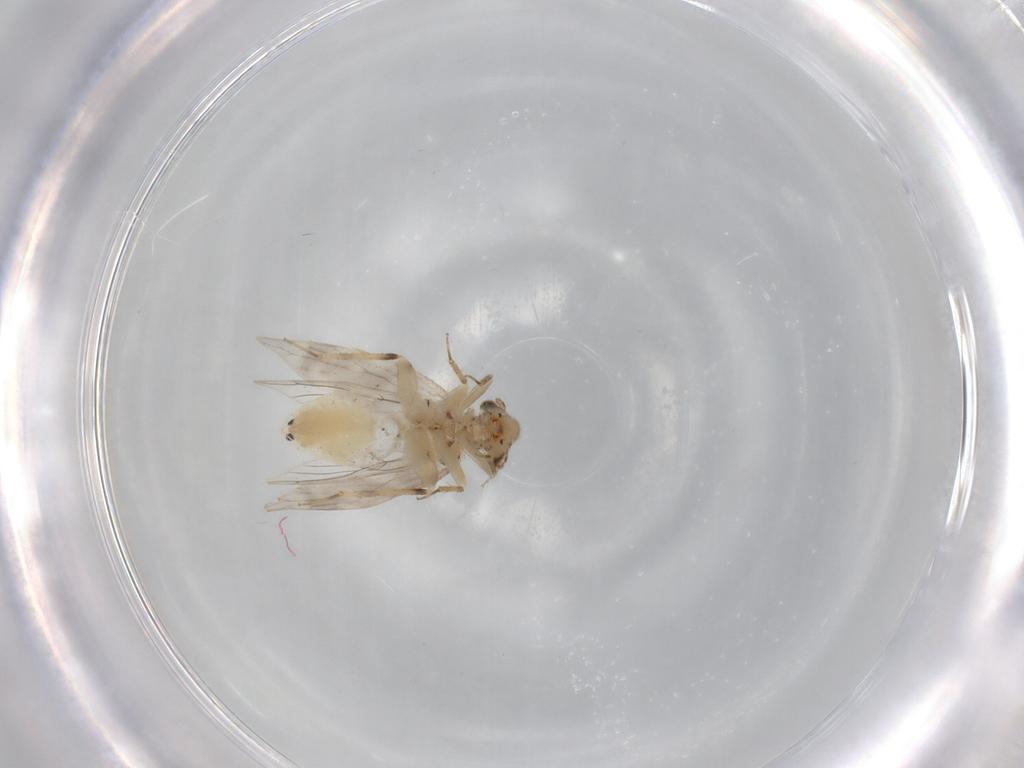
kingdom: Animalia
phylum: Arthropoda
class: Insecta
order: Psocodea
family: Lepidopsocidae
